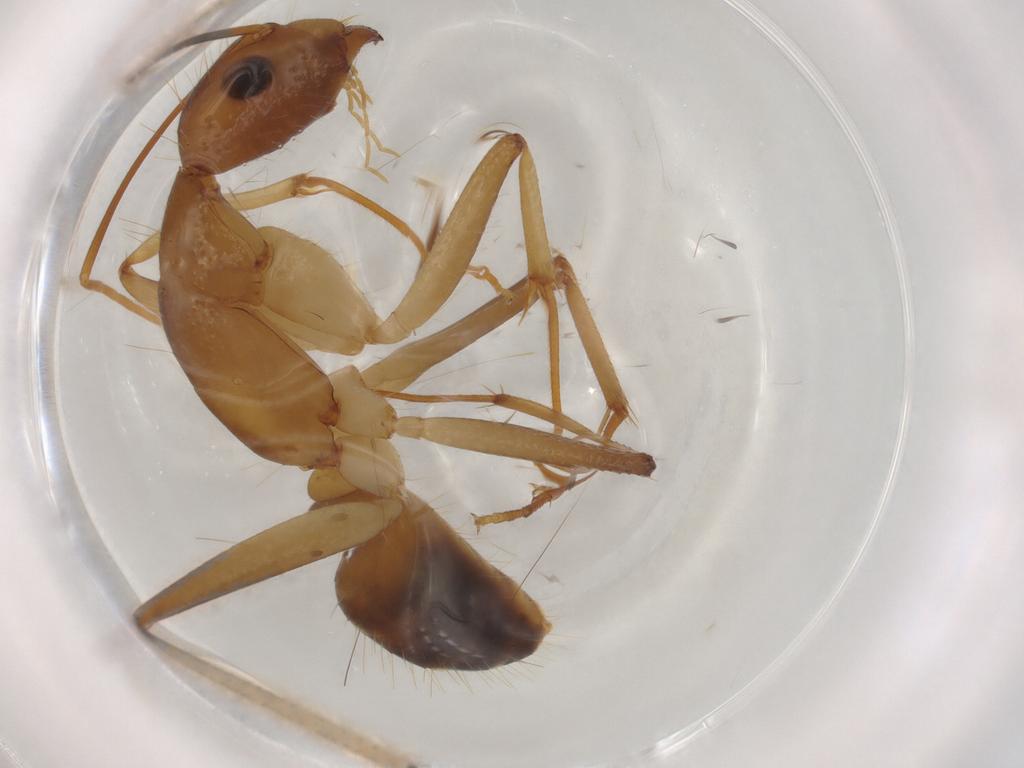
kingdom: Animalia
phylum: Arthropoda
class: Insecta
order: Hymenoptera
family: Formicidae
